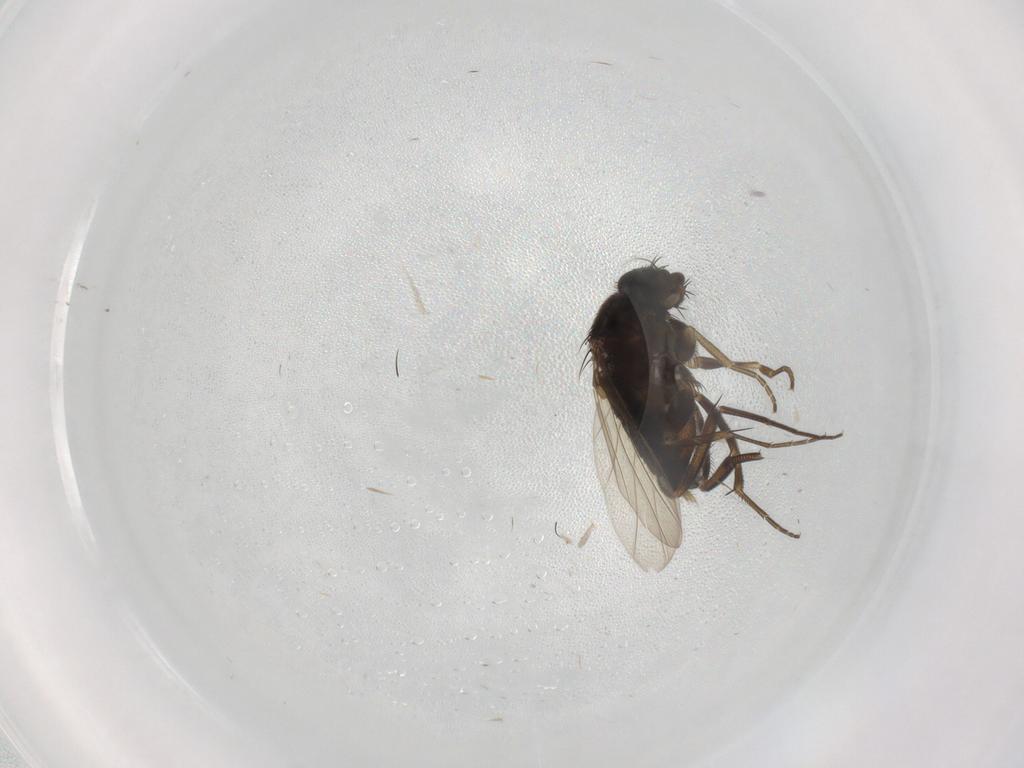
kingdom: Animalia
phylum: Arthropoda
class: Insecta
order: Diptera
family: Phoridae
